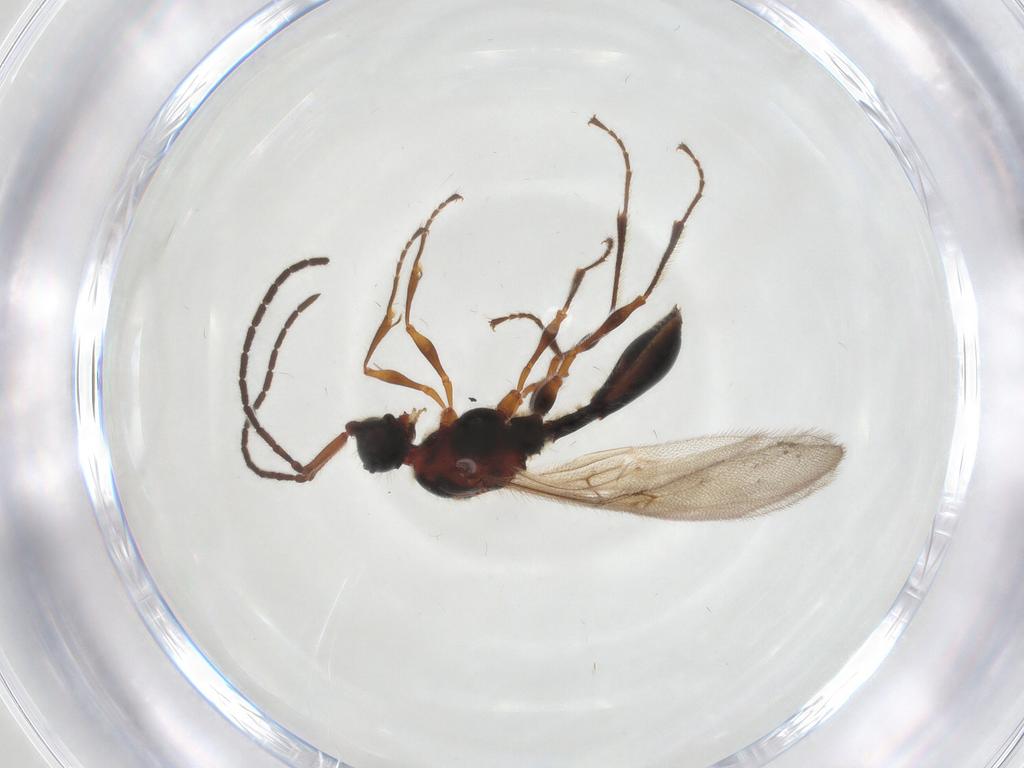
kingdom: Animalia
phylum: Arthropoda
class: Insecta
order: Hymenoptera
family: Diapriidae
